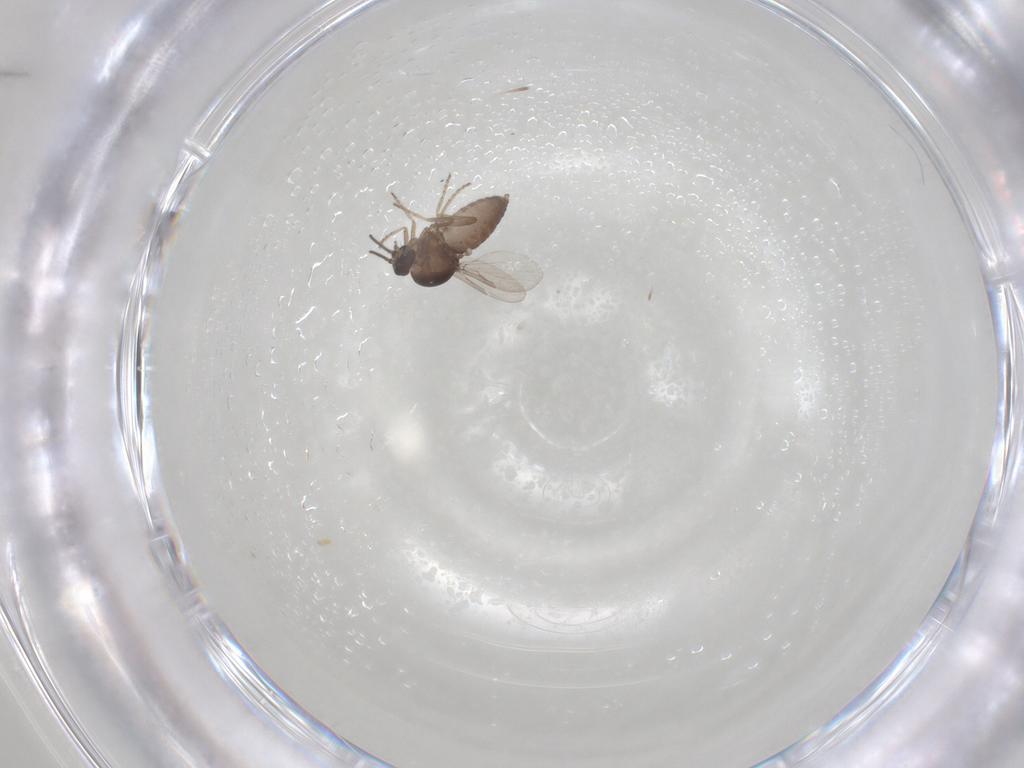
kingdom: Animalia
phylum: Arthropoda
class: Insecta
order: Diptera
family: Ceratopogonidae
